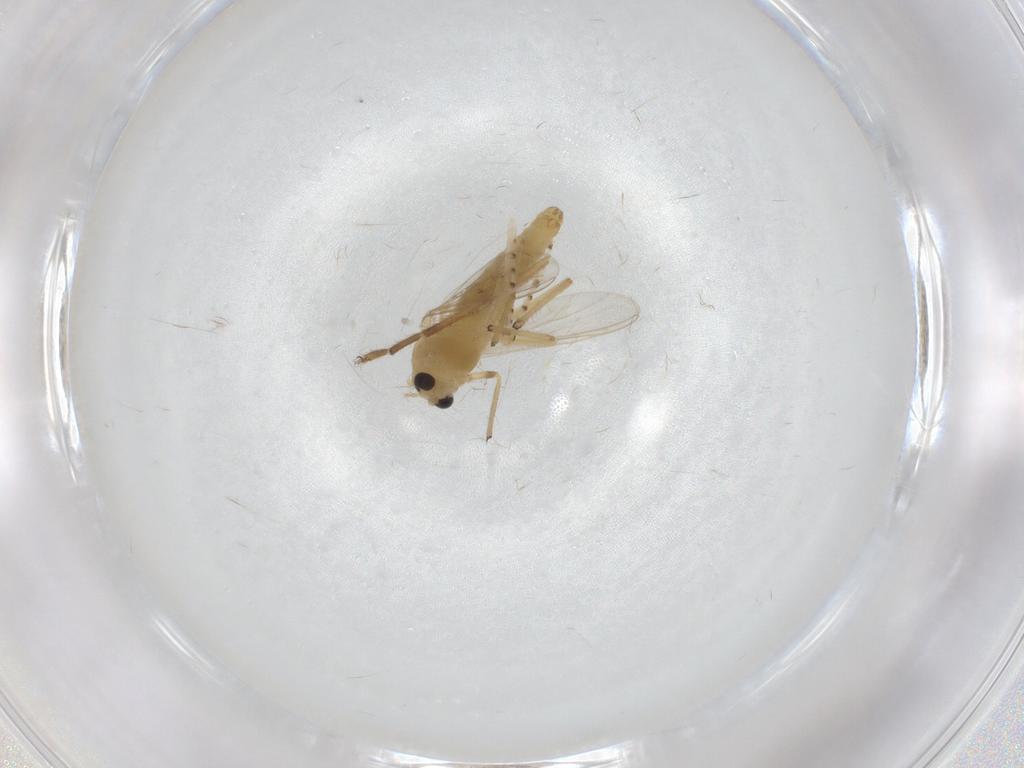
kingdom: Animalia
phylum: Arthropoda
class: Insecta
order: Diptera
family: Chironomidae
